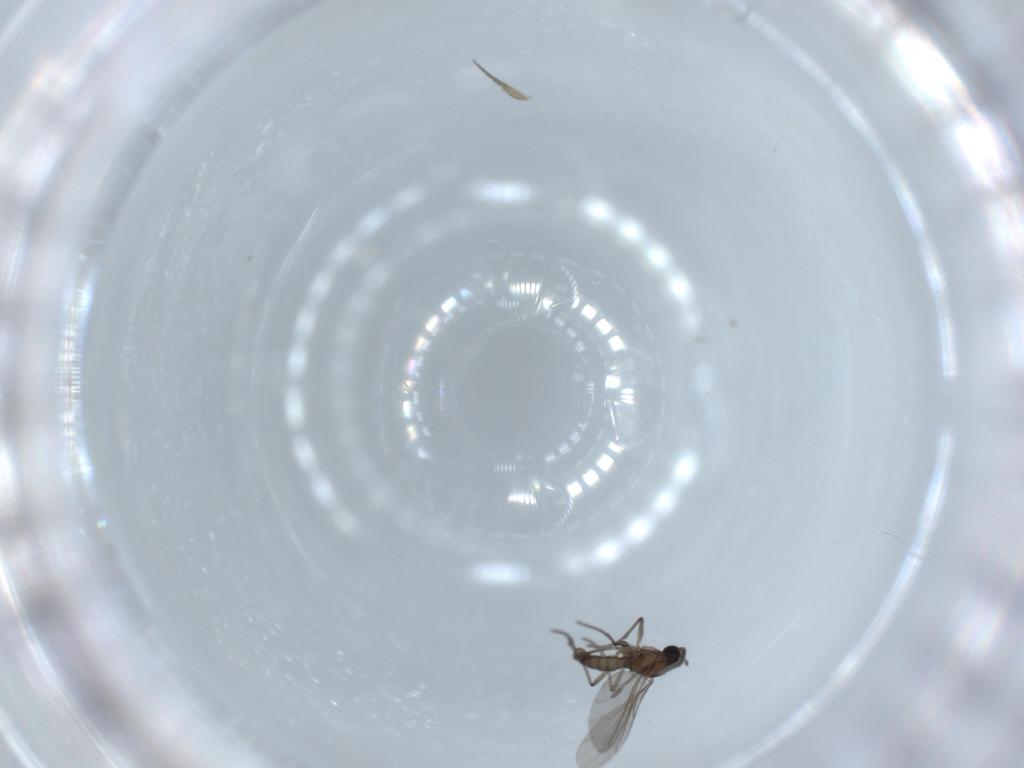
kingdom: Animalia
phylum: Arthropoda
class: Insecta
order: Diptera
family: Sciaridae
